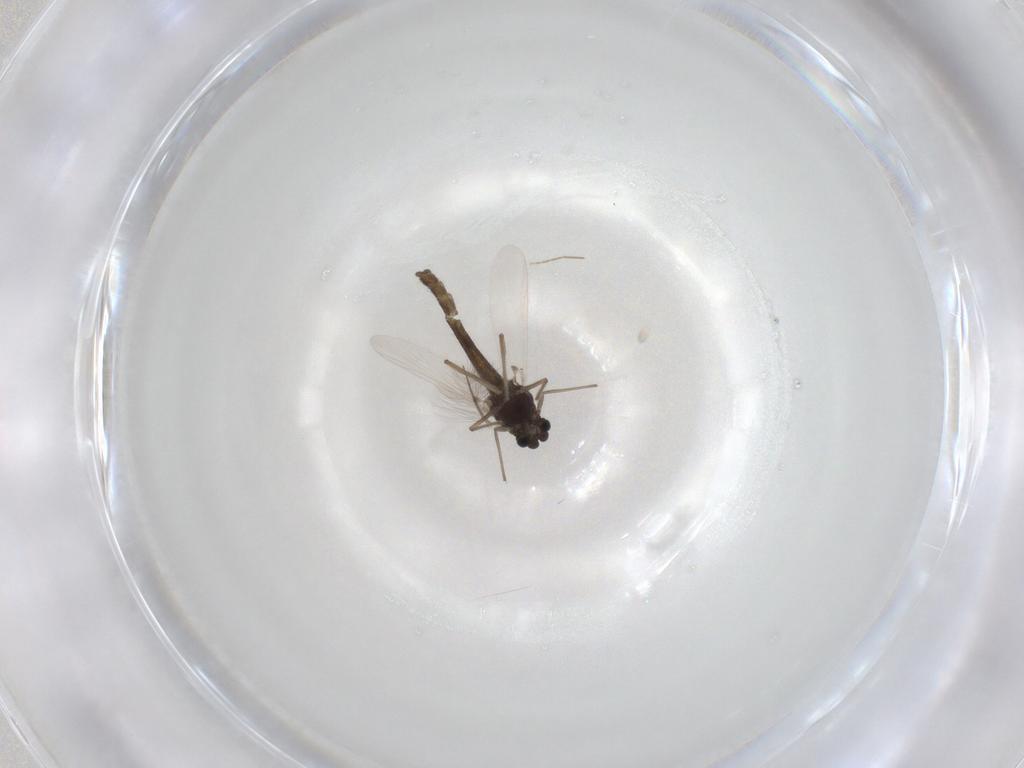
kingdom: Animalia
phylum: Arthropoda
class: Insecta
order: Diptera
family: Chironomidae
